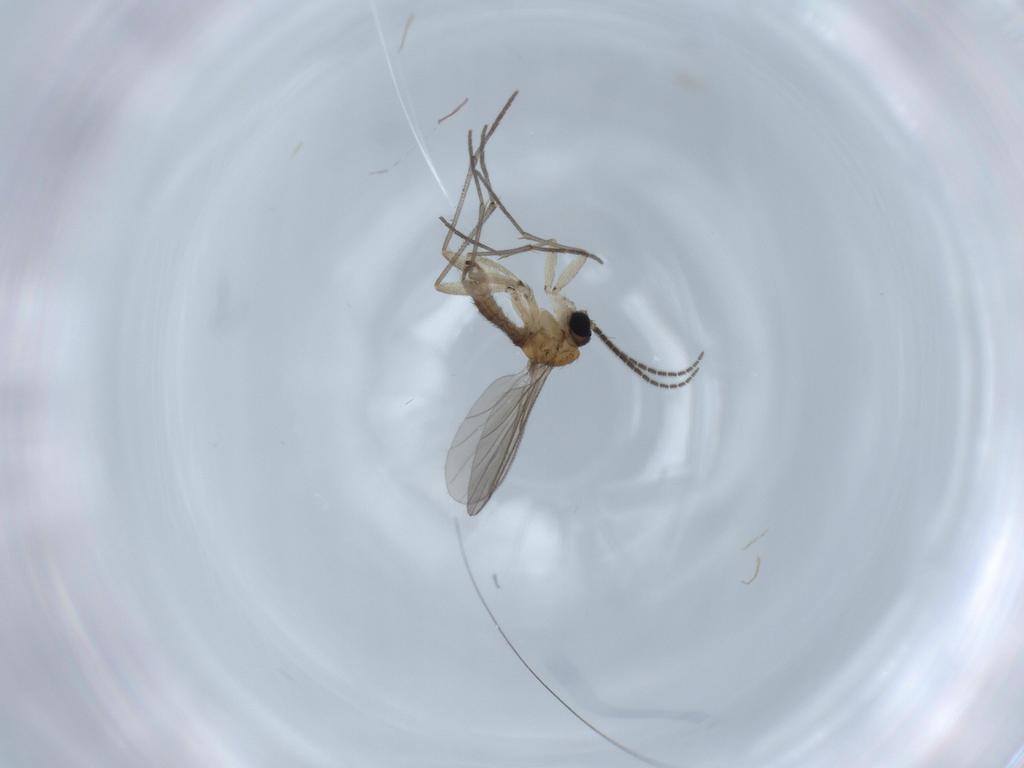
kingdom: Animalia
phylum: Arthropoda
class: Insecta
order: Diptera
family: Sciaridae
